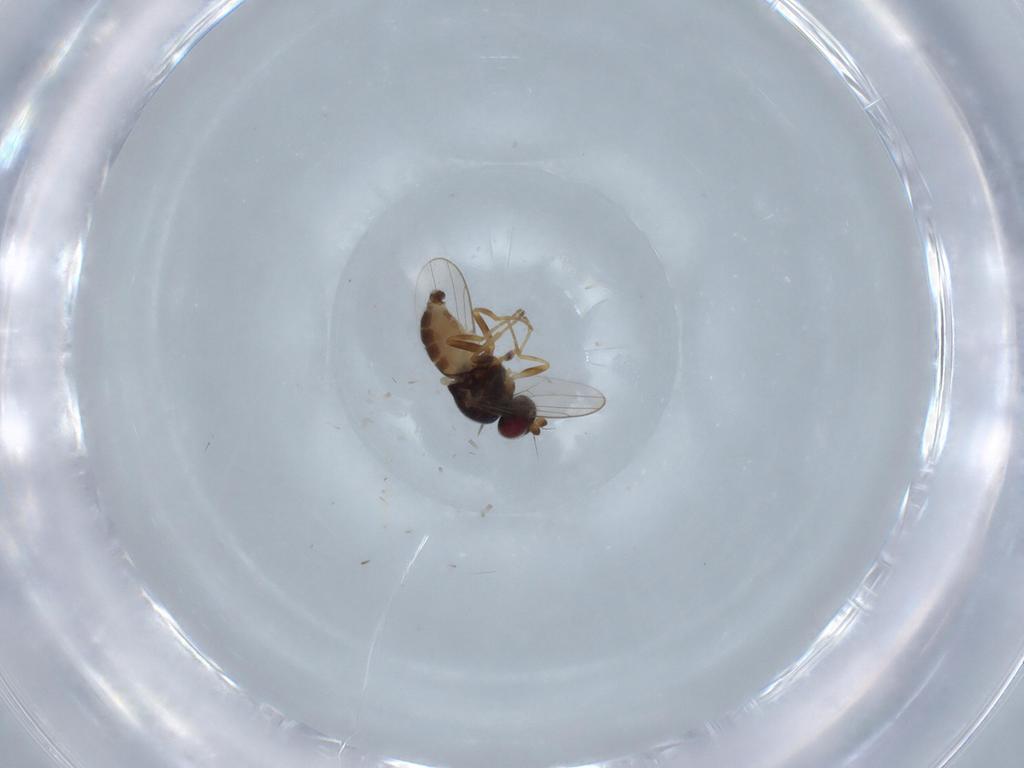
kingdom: Animalia
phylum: Arthropoda
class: Insecta
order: Diptera
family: Chloropidae
